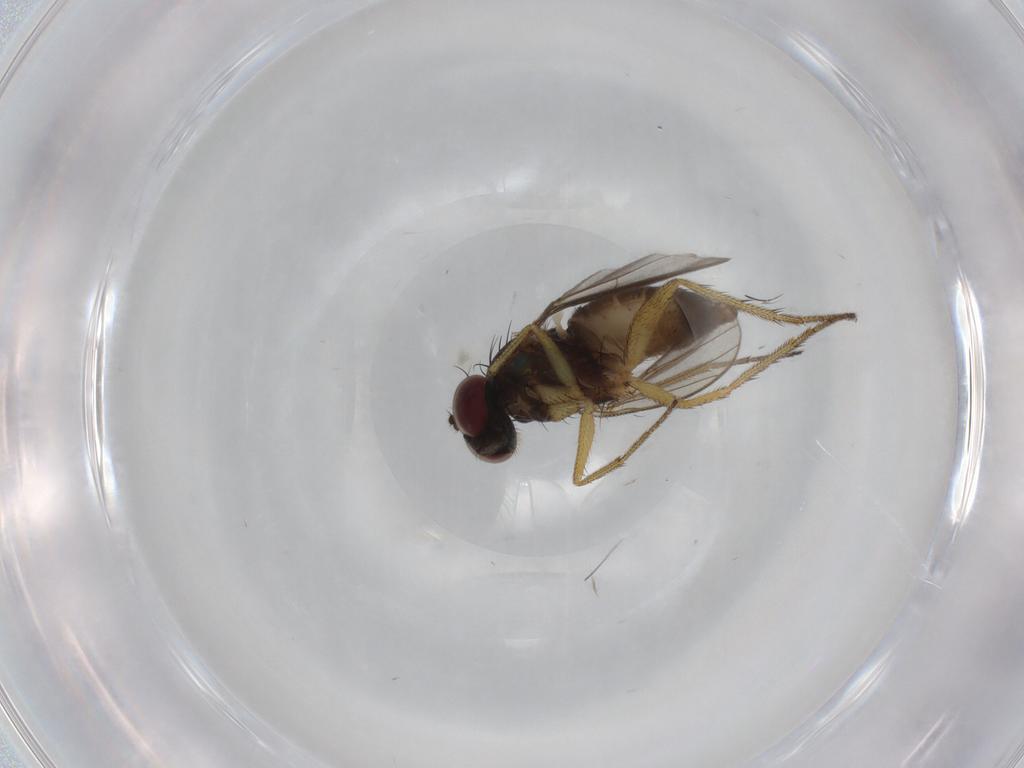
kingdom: Animalia
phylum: Arthropoda
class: Insecta
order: Diptera
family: Dolichopodidae
